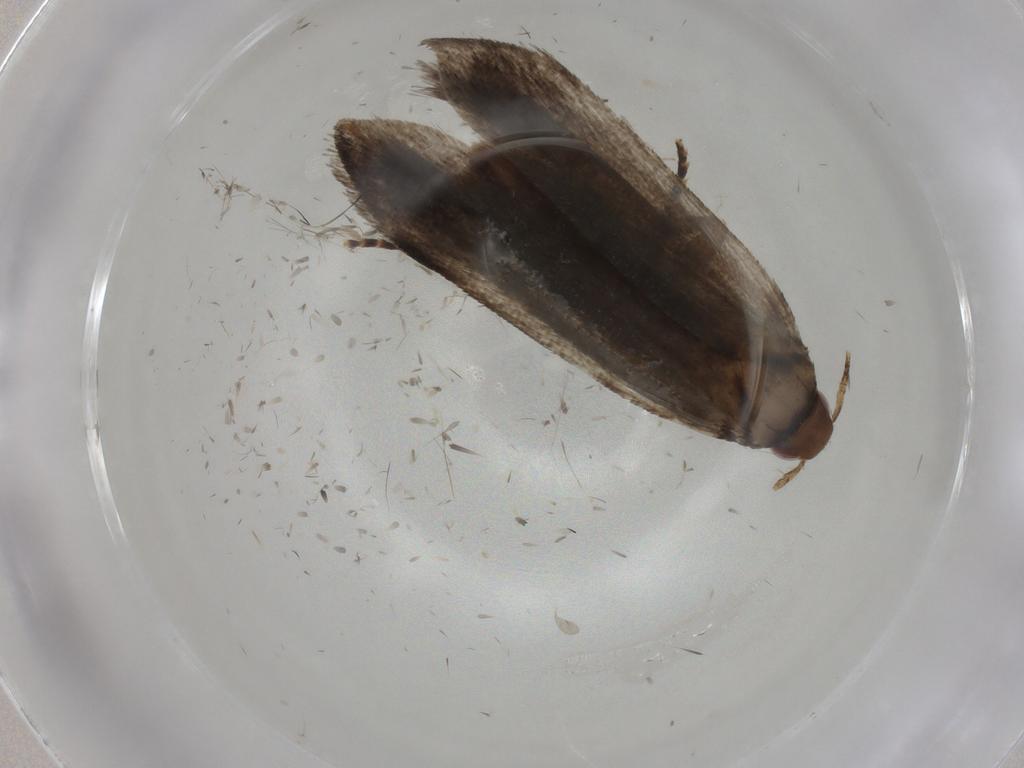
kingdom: Animalia
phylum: Arthropoda
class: Insecta
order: Lepidoptera
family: Gelechiidae
